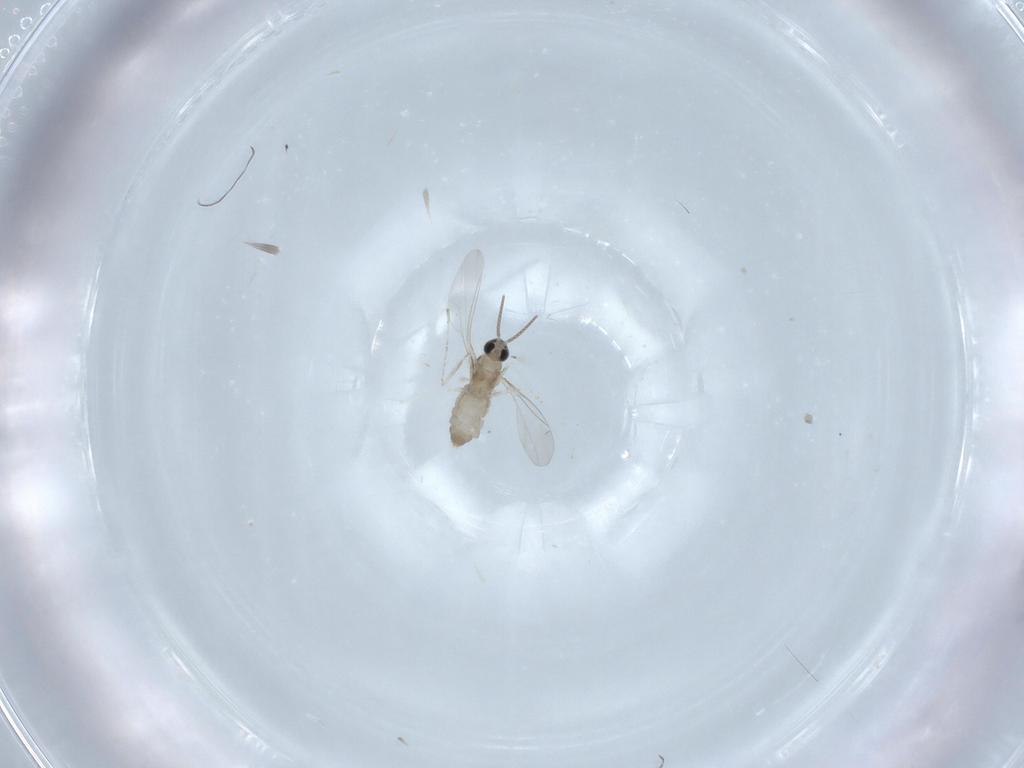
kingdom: Animalia
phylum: Arthropoda
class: Insecta
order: Diptera
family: Cecidomyiidae
